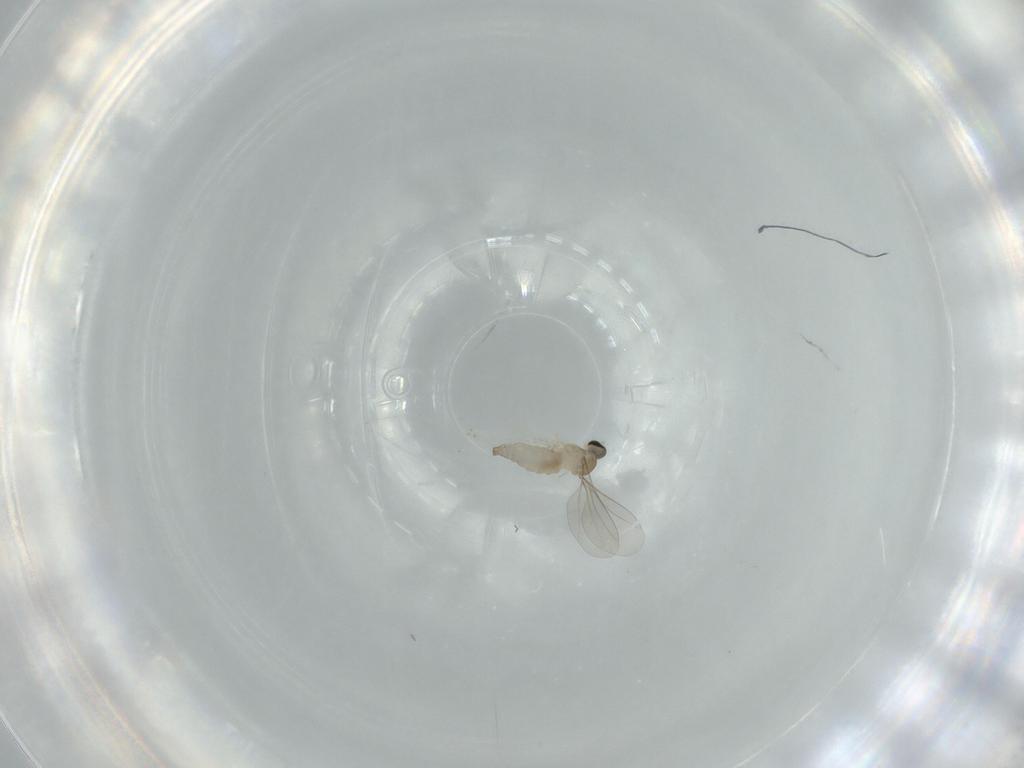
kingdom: Animalia
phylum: Arthropoda
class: Insecta
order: Diptera
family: Cecidomyiidae
